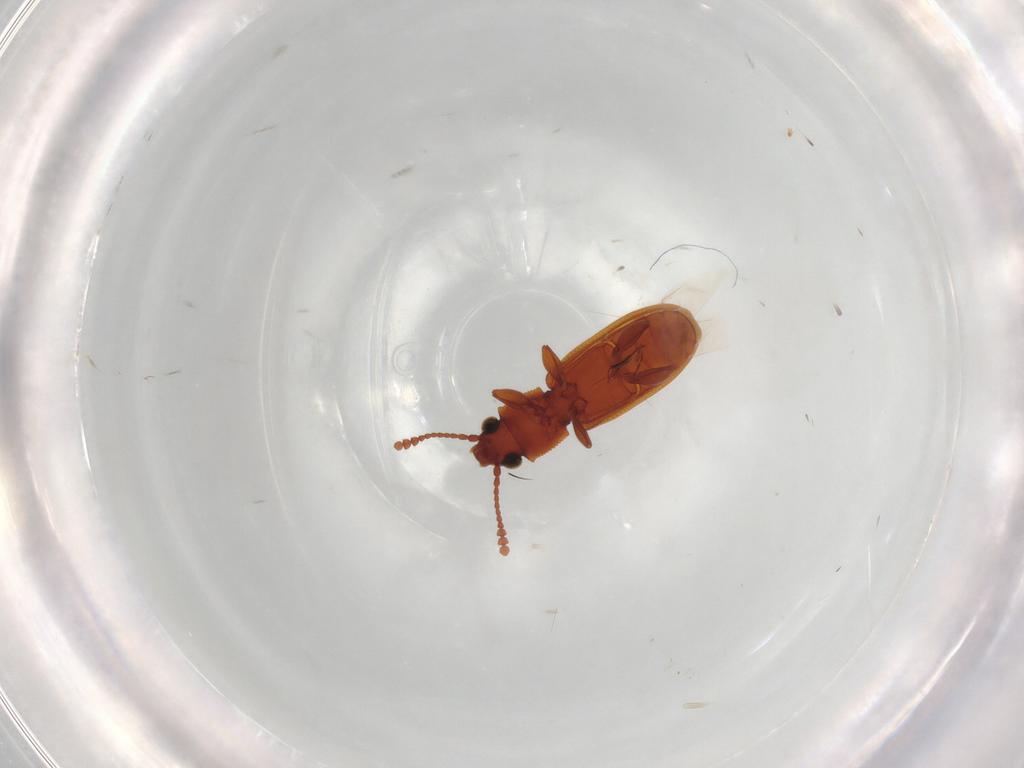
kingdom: Animalia
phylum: Arthropoda
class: Insecta
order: Coleoptera
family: Silvanidae
